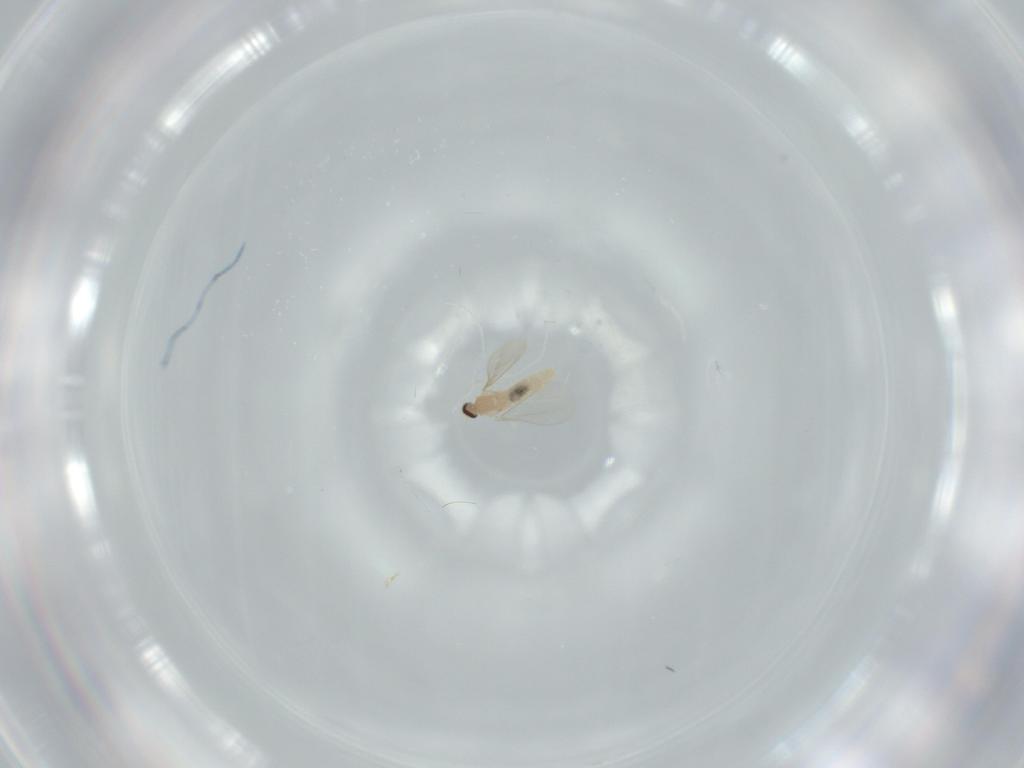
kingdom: Animalia
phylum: Arthropoda
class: Insecta
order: Diptera
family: Cecidomyiidae
